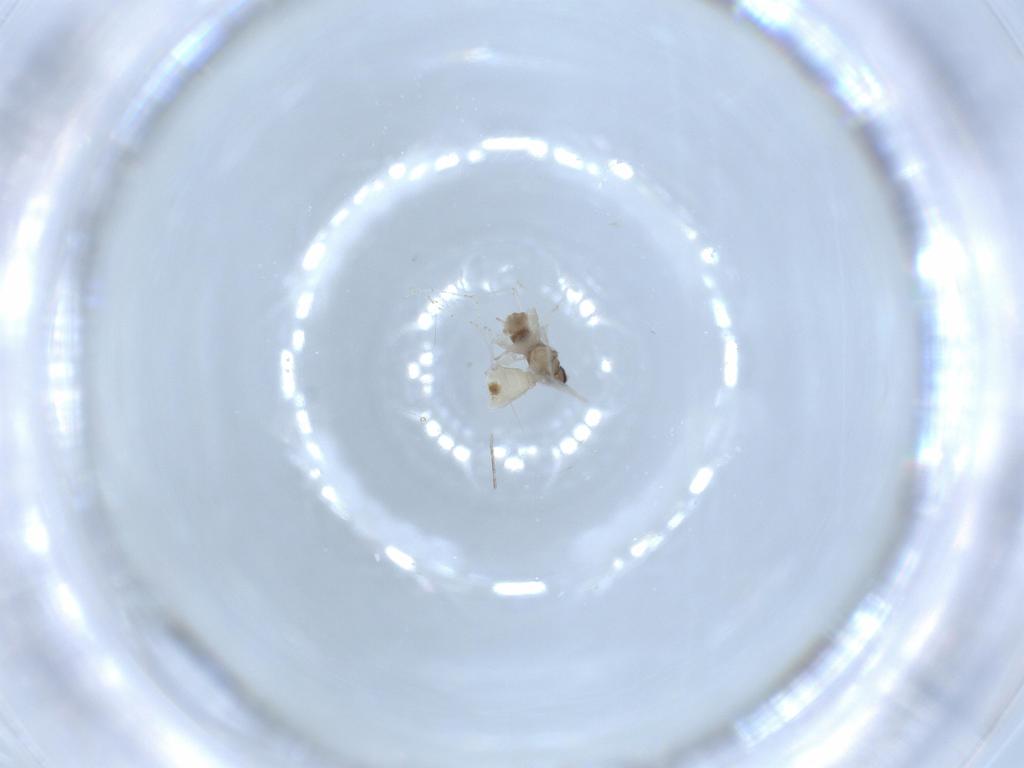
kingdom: Animalia
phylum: Arthropoda
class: Insecta
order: Diptera
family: Cecidomyiidae
